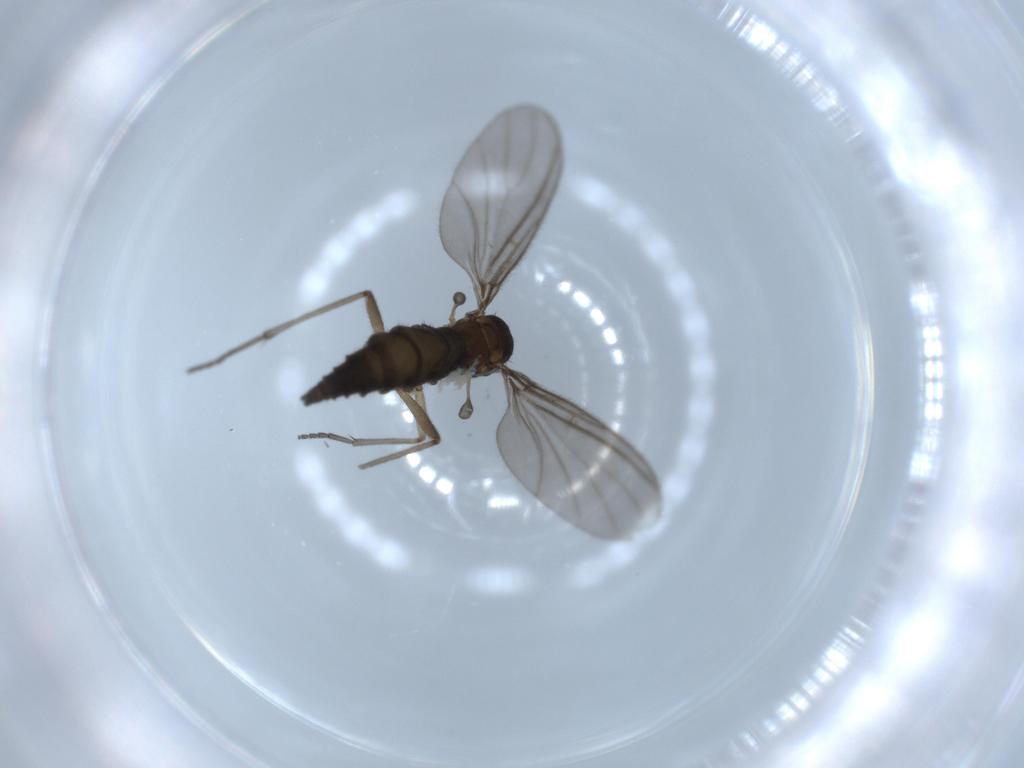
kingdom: Animalia
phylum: Arthropoda
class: Insecta
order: Diptera
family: Sciaridae
